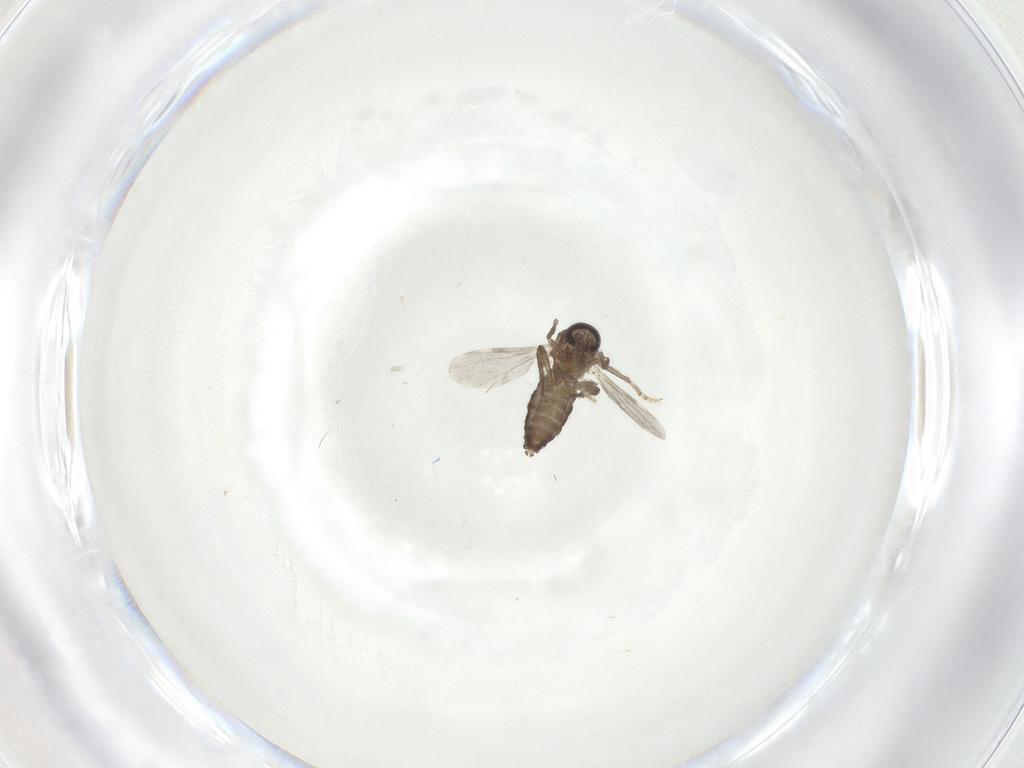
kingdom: Animalia
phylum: Arthropoda
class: Insecta
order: Diptera
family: Ceratopogonidae
